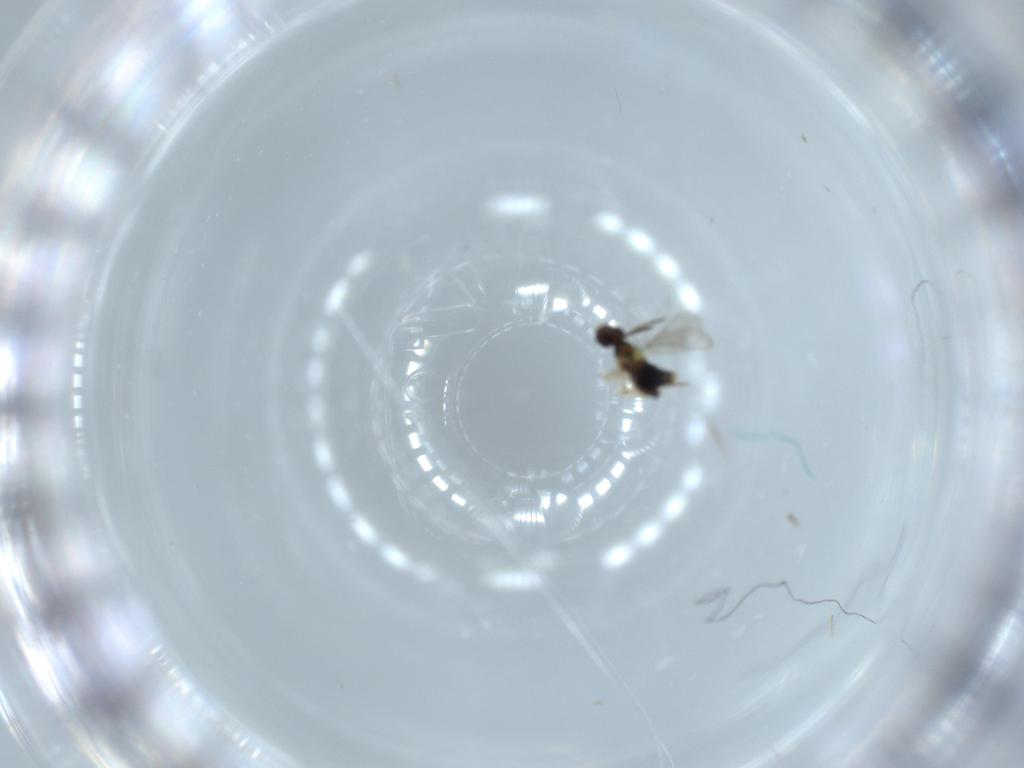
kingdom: Animalia
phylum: Arthropoda
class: Insecta
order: Hymenoptera
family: Aphelinidae
